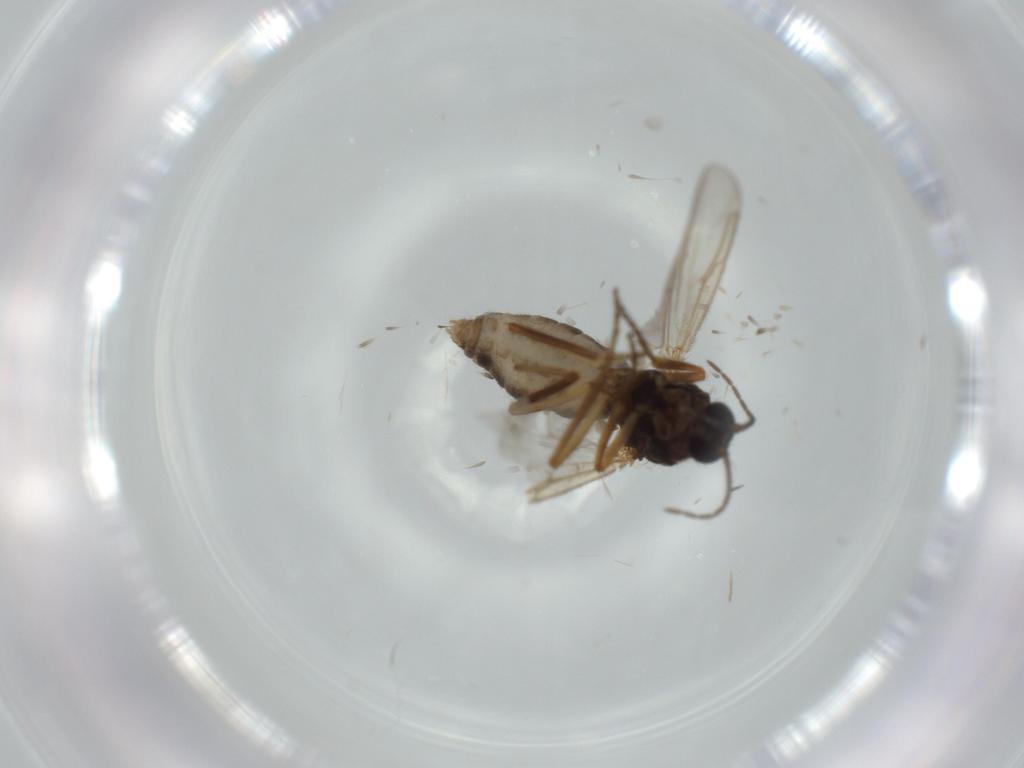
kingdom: Animalia
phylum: Arthropoda
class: Insecta
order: Diptera
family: Ceratopogonidae
